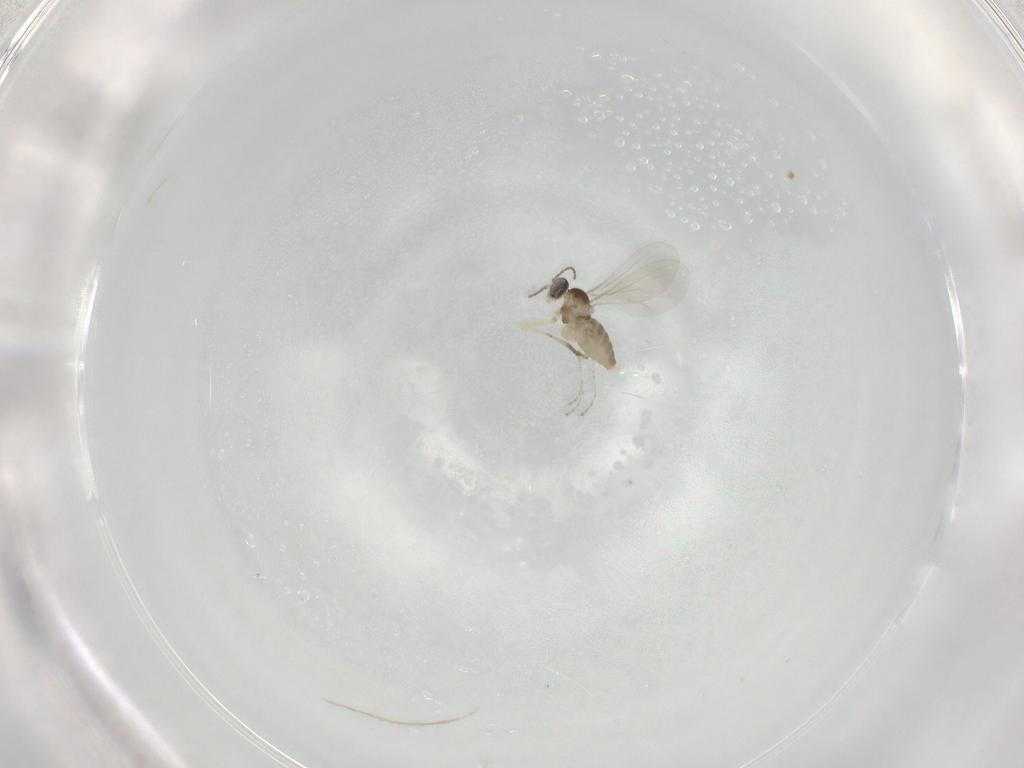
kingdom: Animalia
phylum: Arthropoda
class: Insecta
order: Diptera
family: Cecidomyiidae
